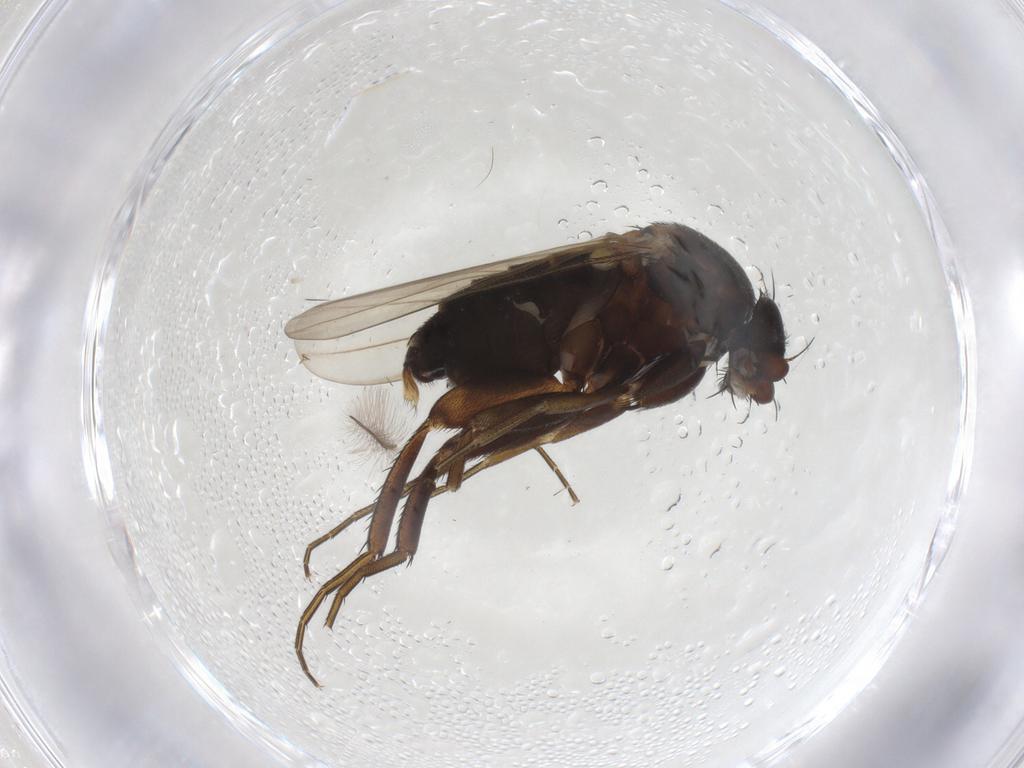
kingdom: Animalia
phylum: Arthropoda
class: Insecta
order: Diptera
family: Phoridae
